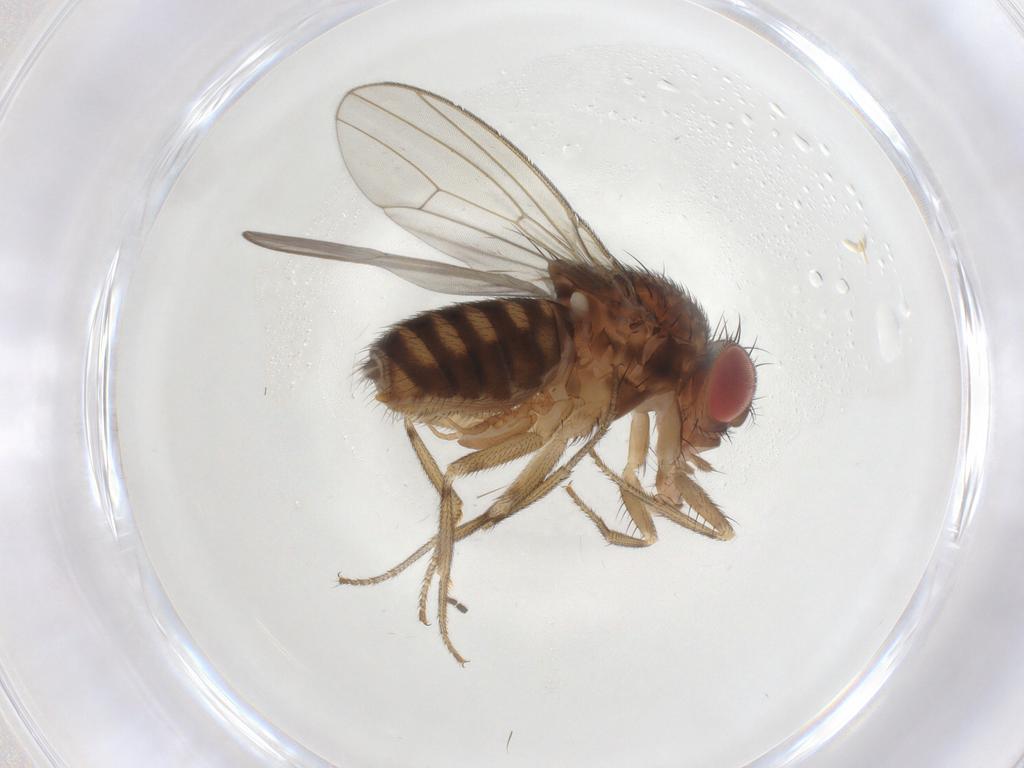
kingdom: Animalia
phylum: Arthropoda
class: Insecta
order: Diptera
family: Drosophilidae
